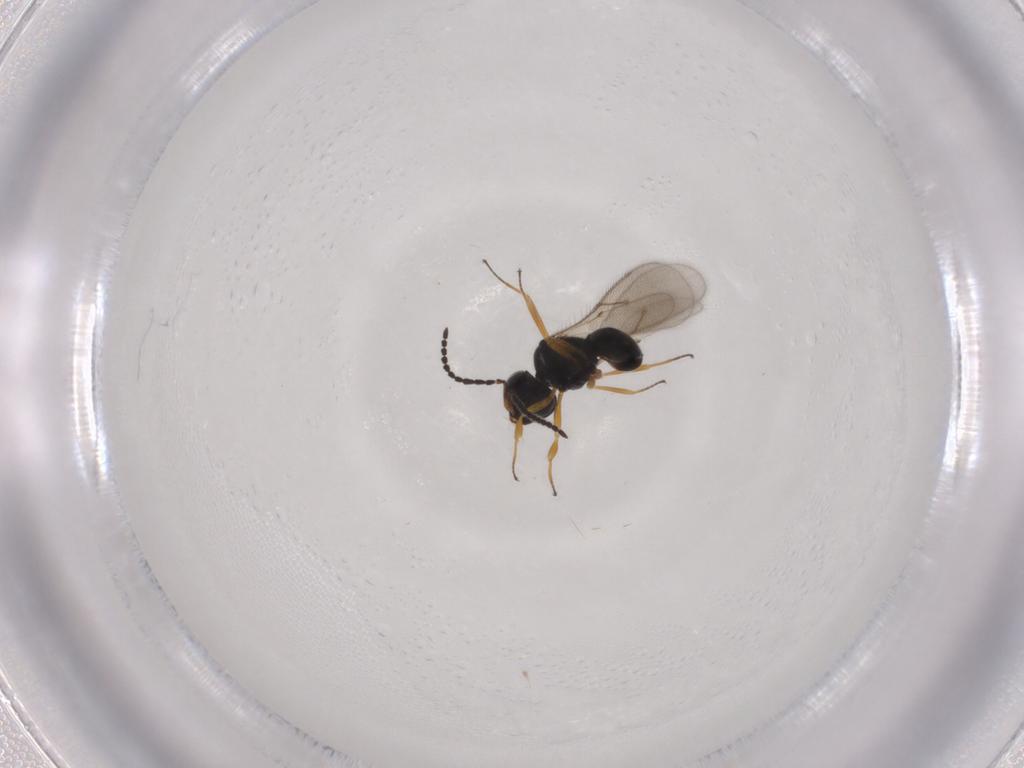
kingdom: Animalia
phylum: Arthropoda
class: Insecta
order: Hymenoptera
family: Scelionidae
